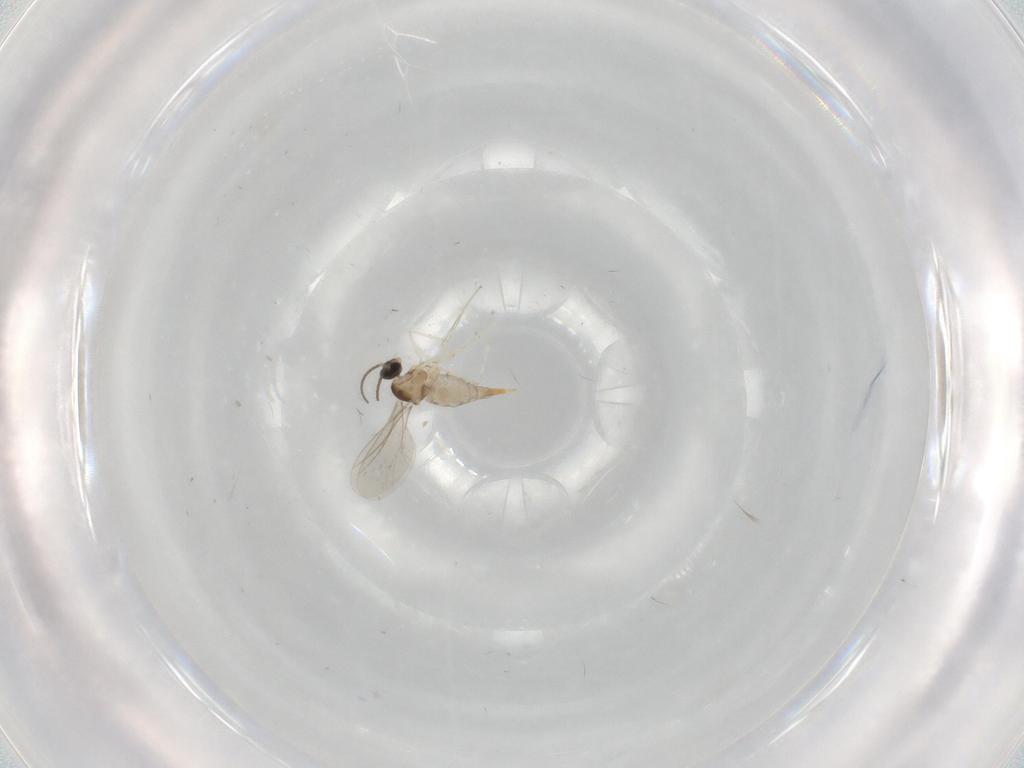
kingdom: Animalia
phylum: Arthropoda
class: Insecta
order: Diptera
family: Cecidomyiidae
